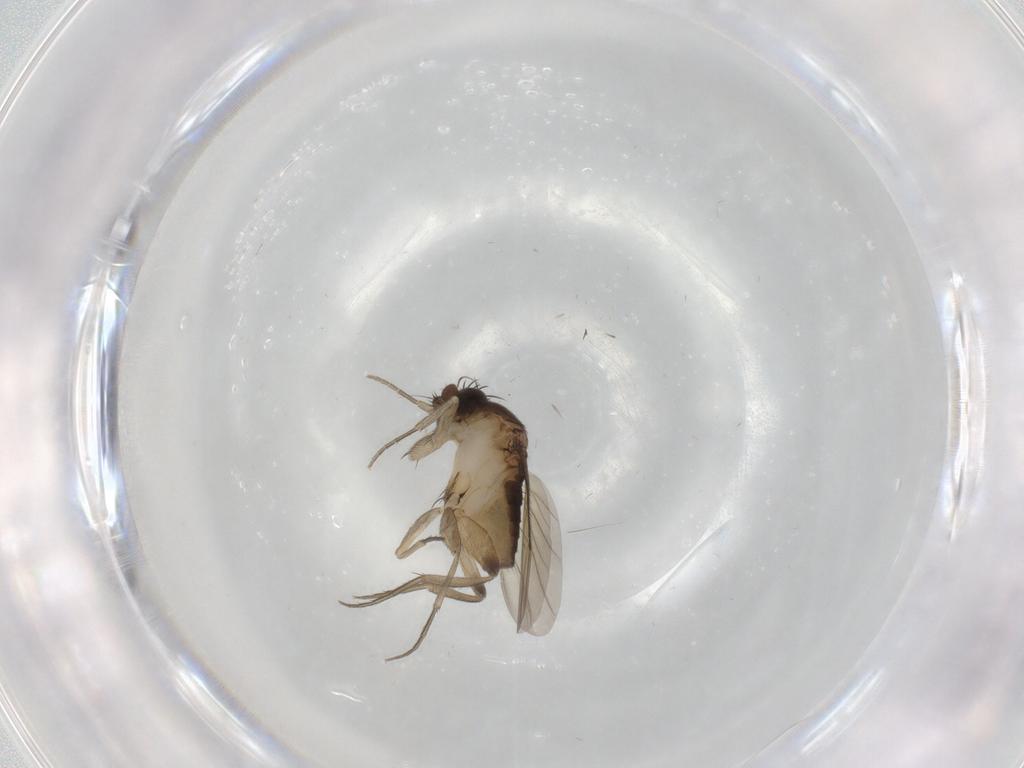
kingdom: Animalia
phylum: Arthropoda
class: Insecta
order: Diptera
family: Phoridae
